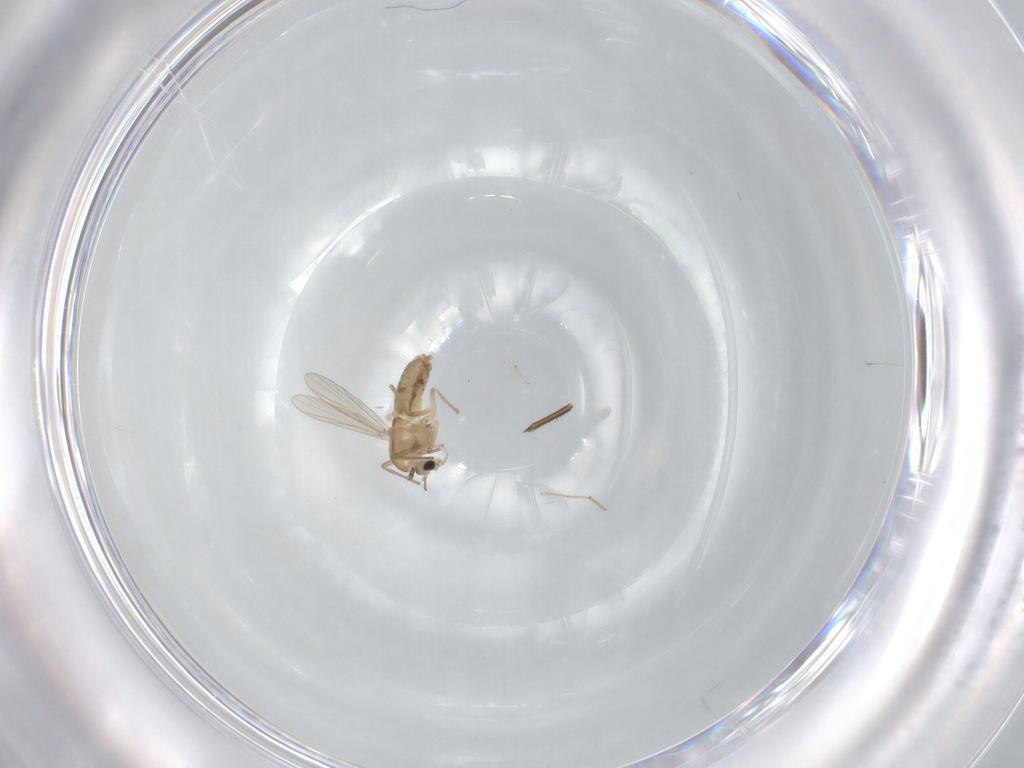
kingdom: Animalia
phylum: Arthropoda
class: Insecta
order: Diptera
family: Chironomidae
